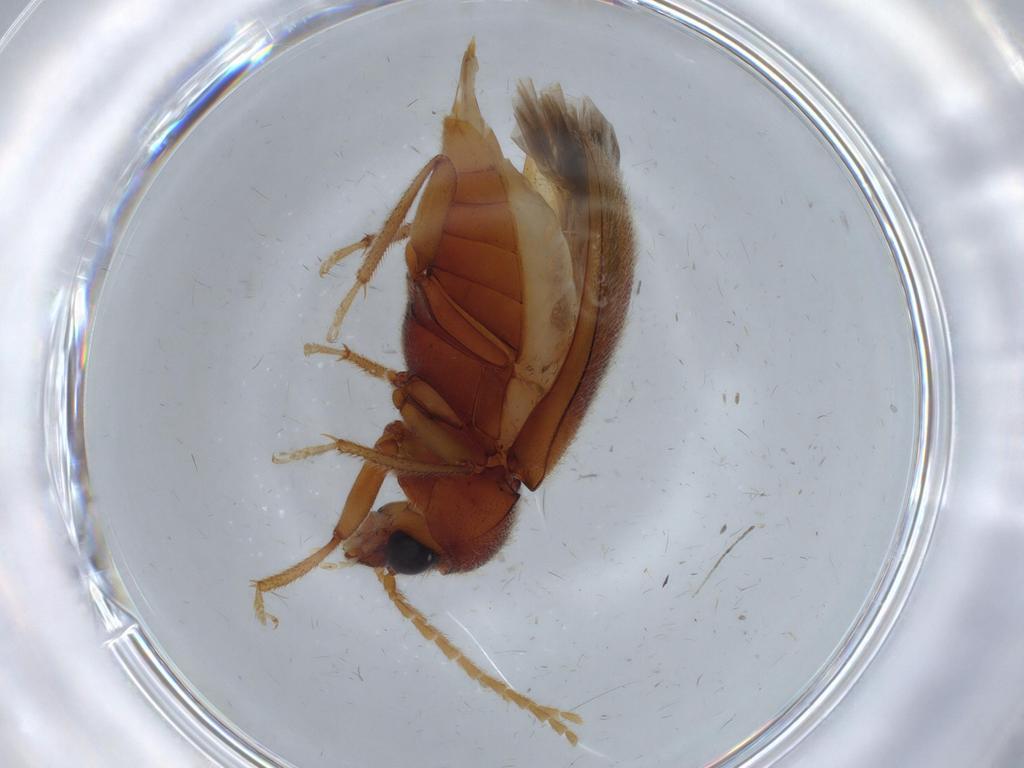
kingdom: Animalia
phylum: Arthropoda
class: Insecta
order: Coleoptera
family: Ptilodactylidae
